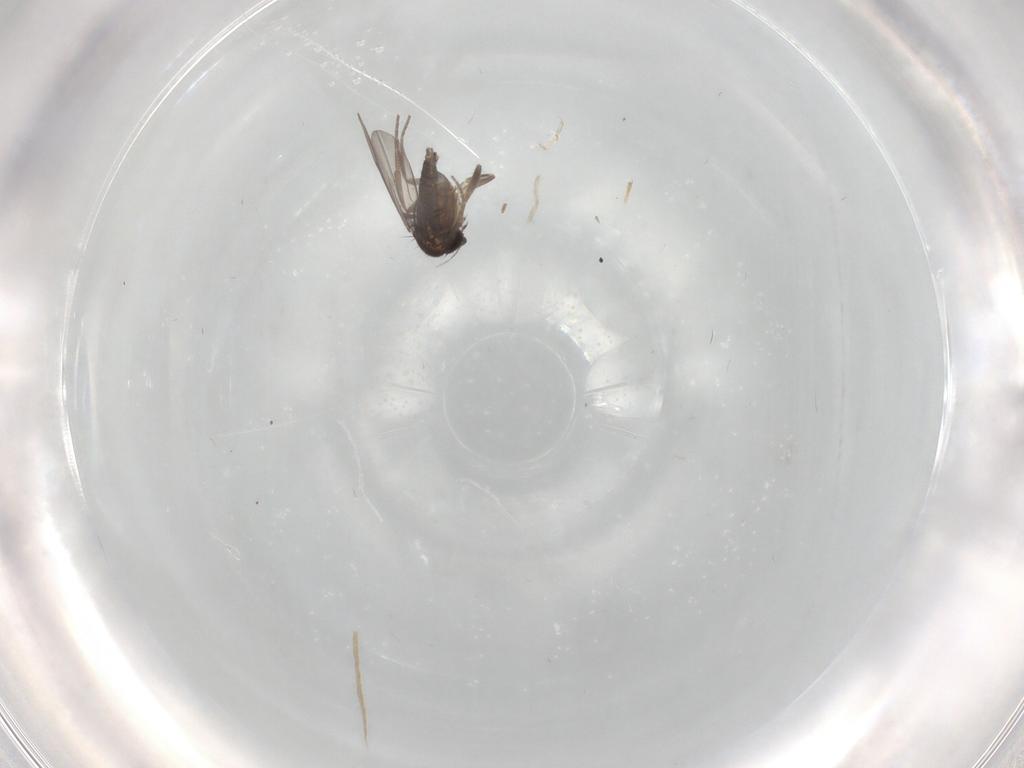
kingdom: Animalia
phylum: Arthropoda
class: Insecta
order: Diptera
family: Phoridae
